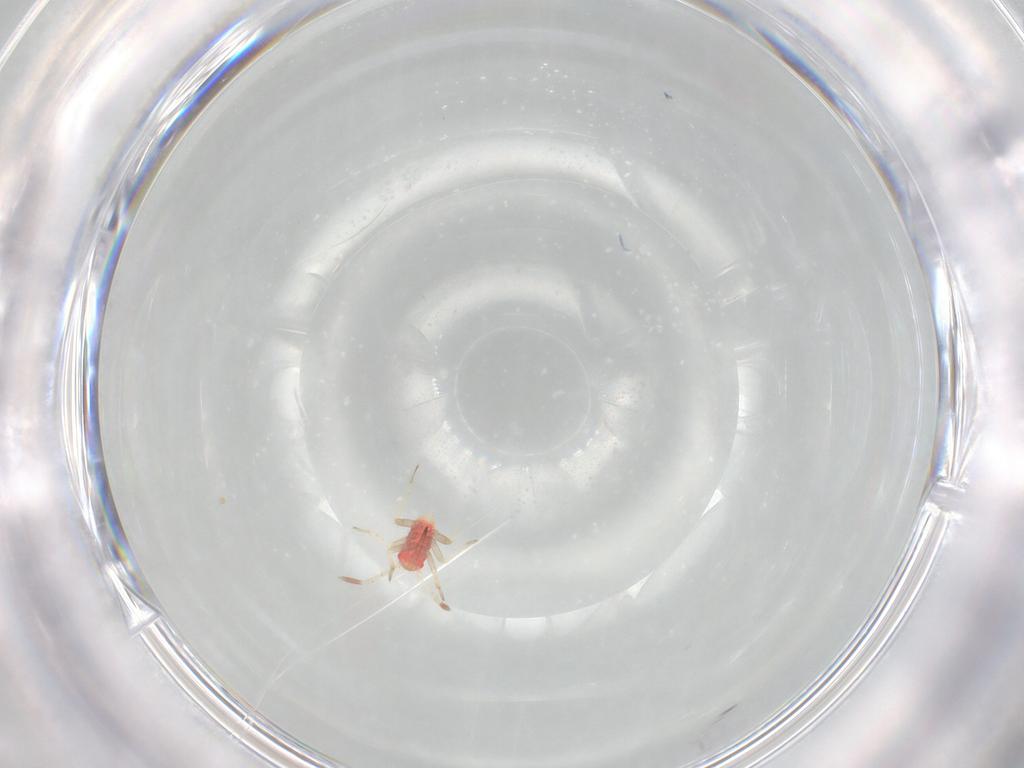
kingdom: Animalia
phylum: Arthropoda
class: Insecta
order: Hemiptera
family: Miridae
